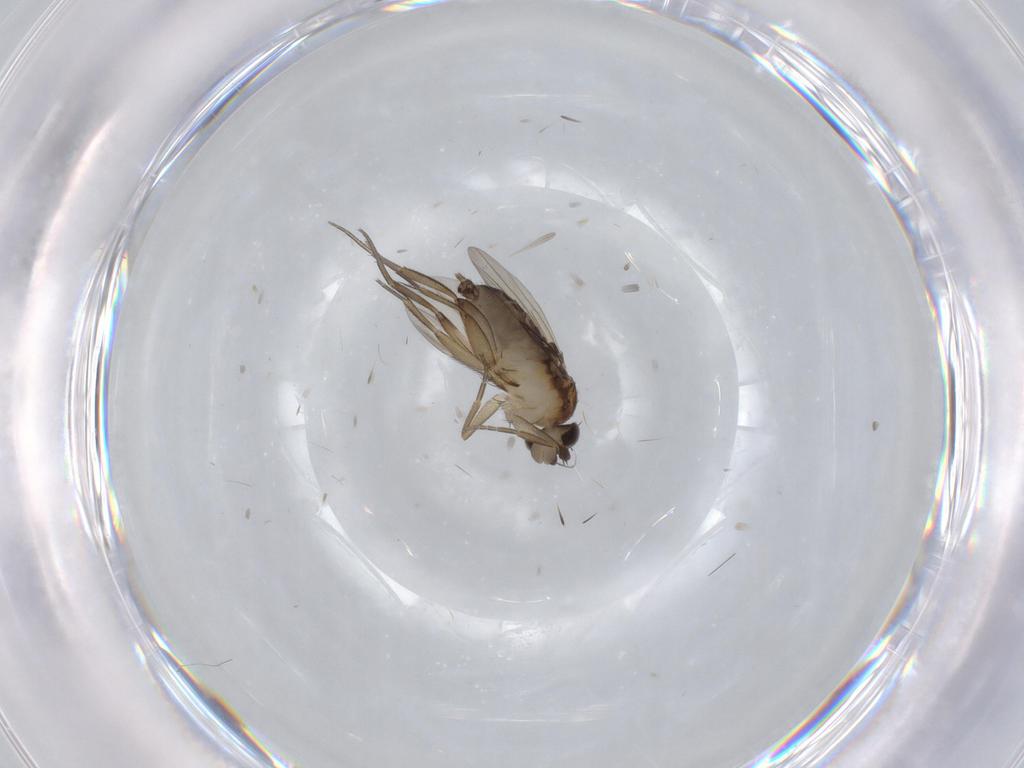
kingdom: Animalia
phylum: Arthropoda
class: Insecta
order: Diptera
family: Phoridae
